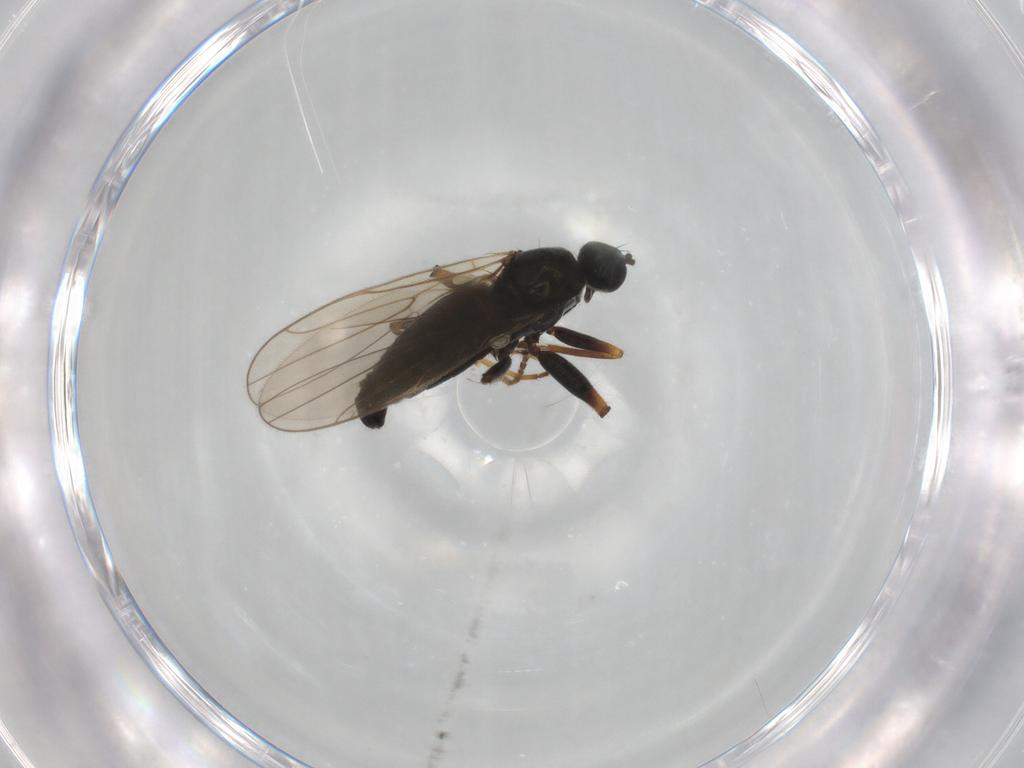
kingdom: Animalia
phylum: Arthropoda
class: Insecta
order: Diptera
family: Sciaridae
